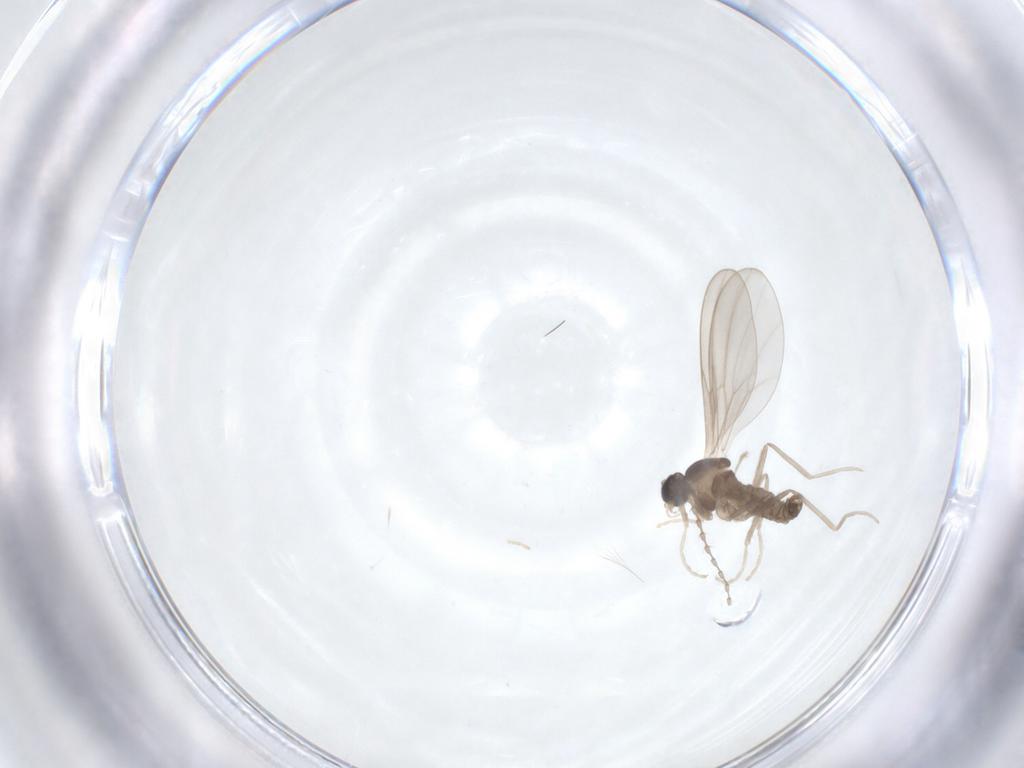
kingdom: Animalia
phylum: Arthropoda
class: Insecta
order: Diptera
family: Cecidomyiidae
